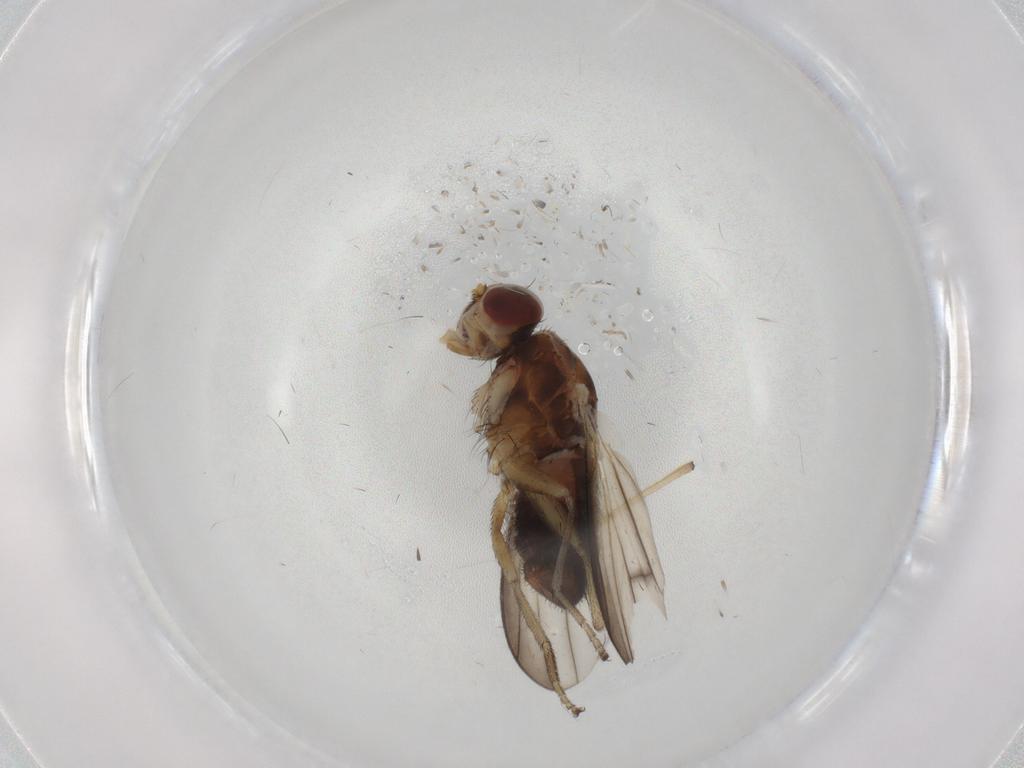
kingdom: Animalia
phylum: Arthropoda
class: Insecta
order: Diptera
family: Heleomyzidae
